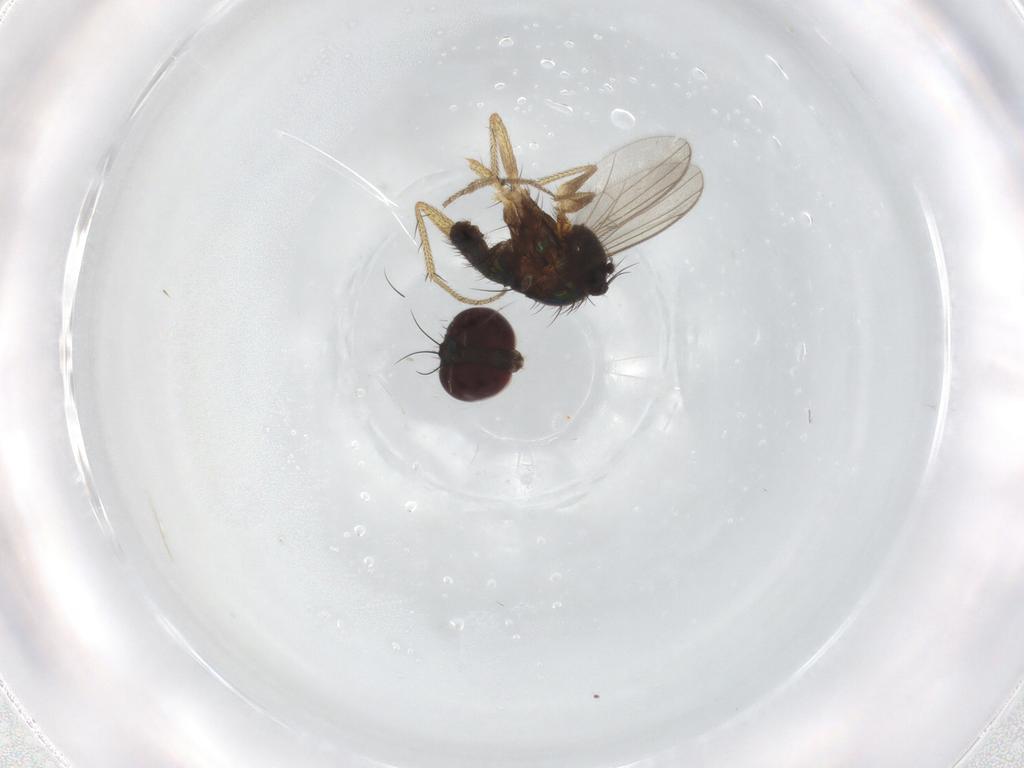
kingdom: Animalia
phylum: Arthropoda
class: Insecta
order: Diptera
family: Dolichopodidae
